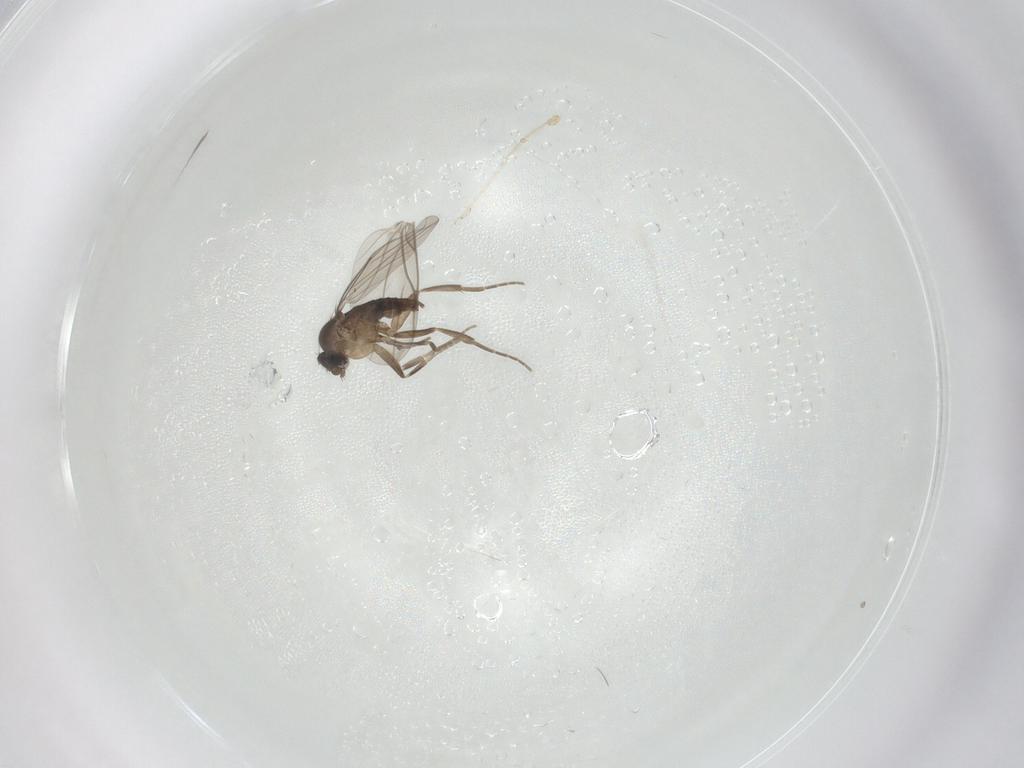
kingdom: Animalia
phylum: Arthropoda
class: Insecta
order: Diptera
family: Phoridae
